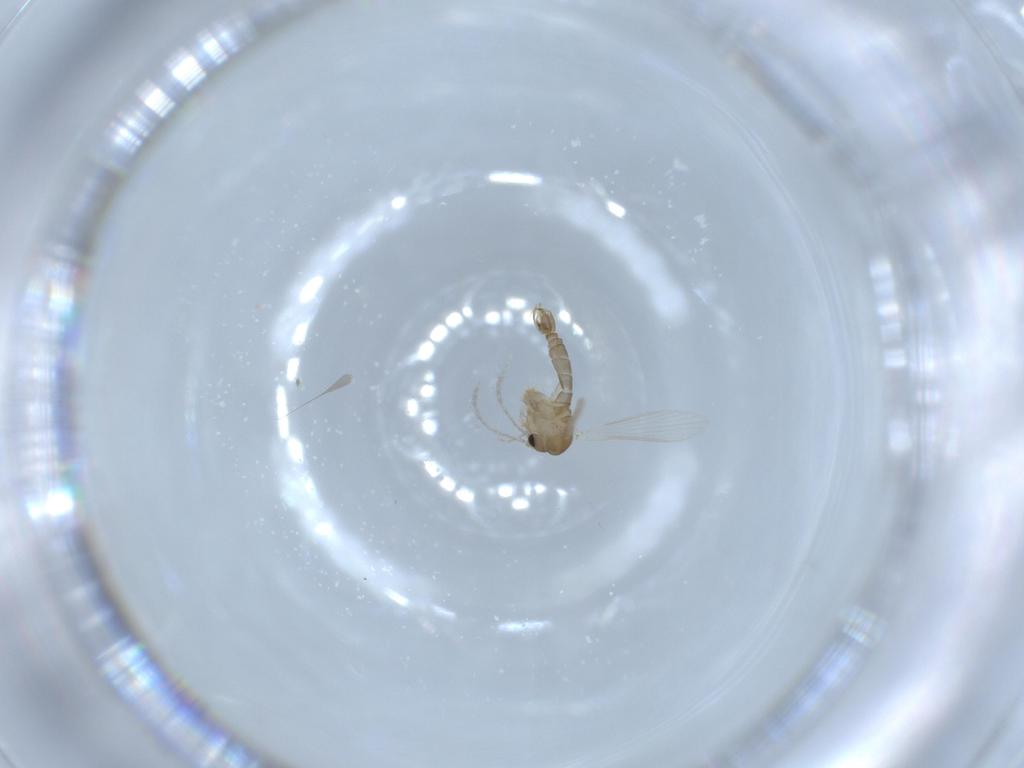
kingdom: Animalia
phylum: Arthropoda
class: Insecta
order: Diptera
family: Psychodidae
